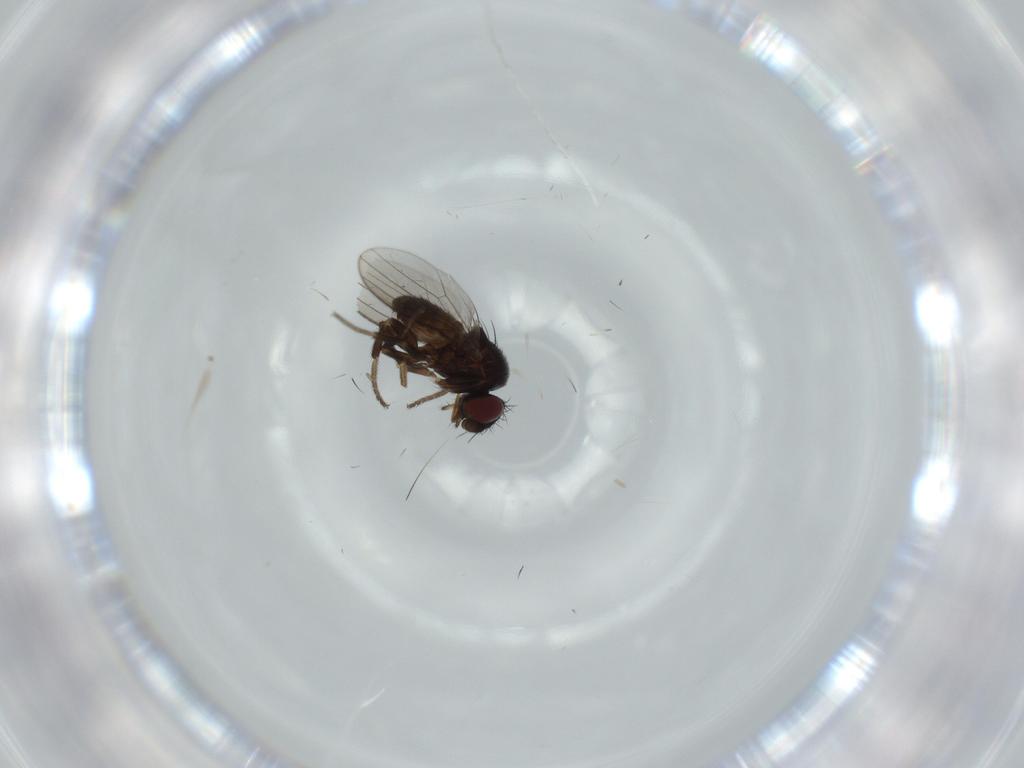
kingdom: Animalia
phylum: Arthropoda
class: Insecta
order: Diptera
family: Milichiidae
